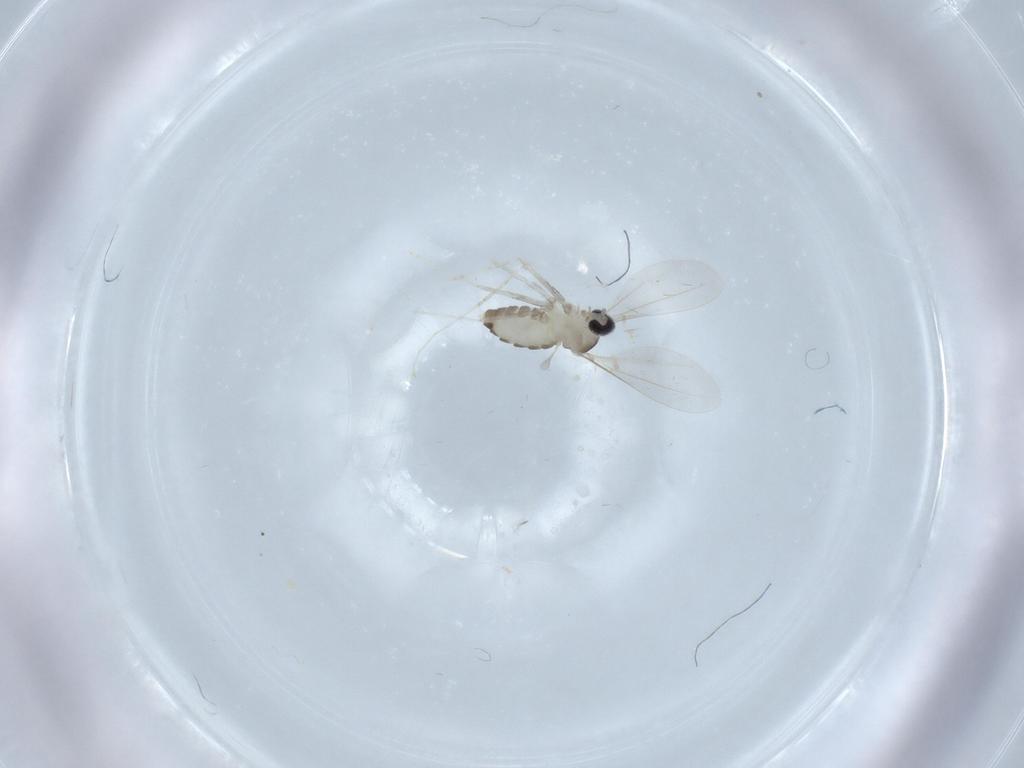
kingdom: Animalia
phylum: Arthropoda
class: Insecta
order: Diptera
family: Cecidomyiidae
